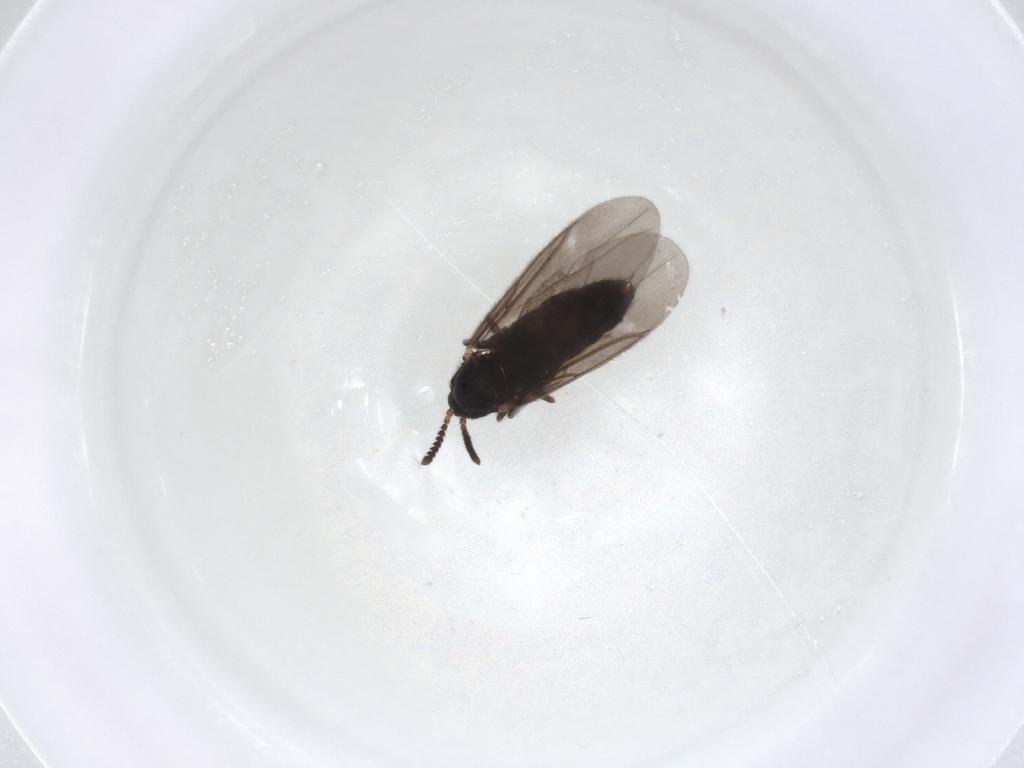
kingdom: Animalia
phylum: Arthropoda
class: Insecta
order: Diptera
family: Scatopsidae
